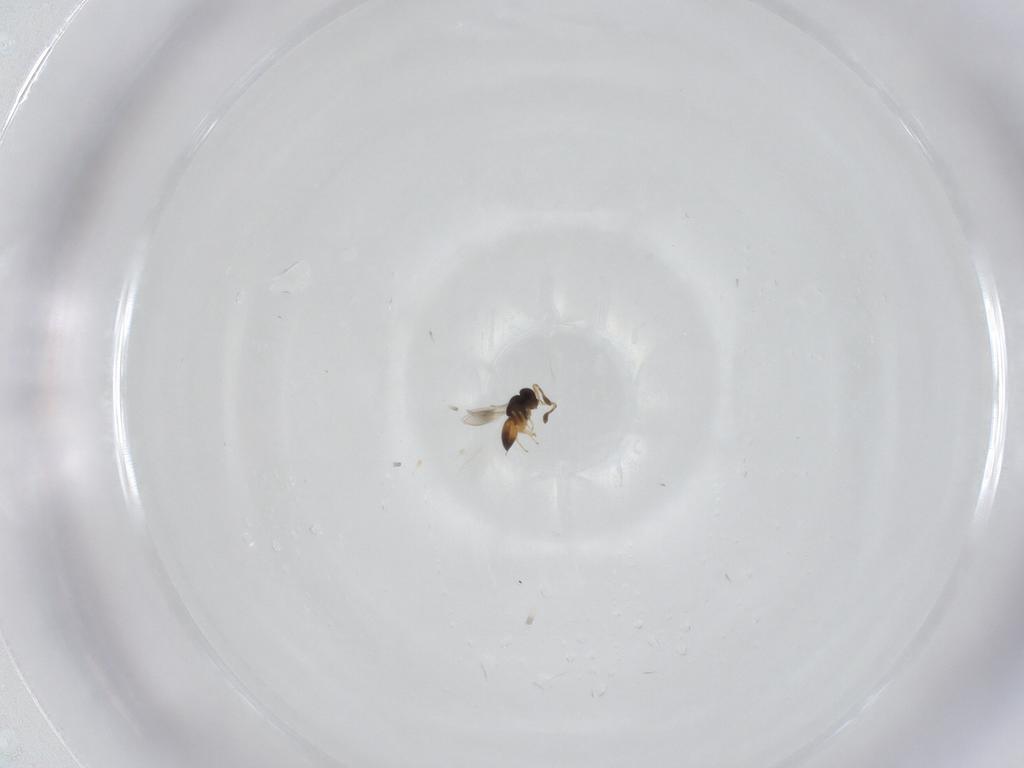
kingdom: Animalia
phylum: Arthropoda
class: Insecta
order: Hymenoptera
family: Scelionidae
